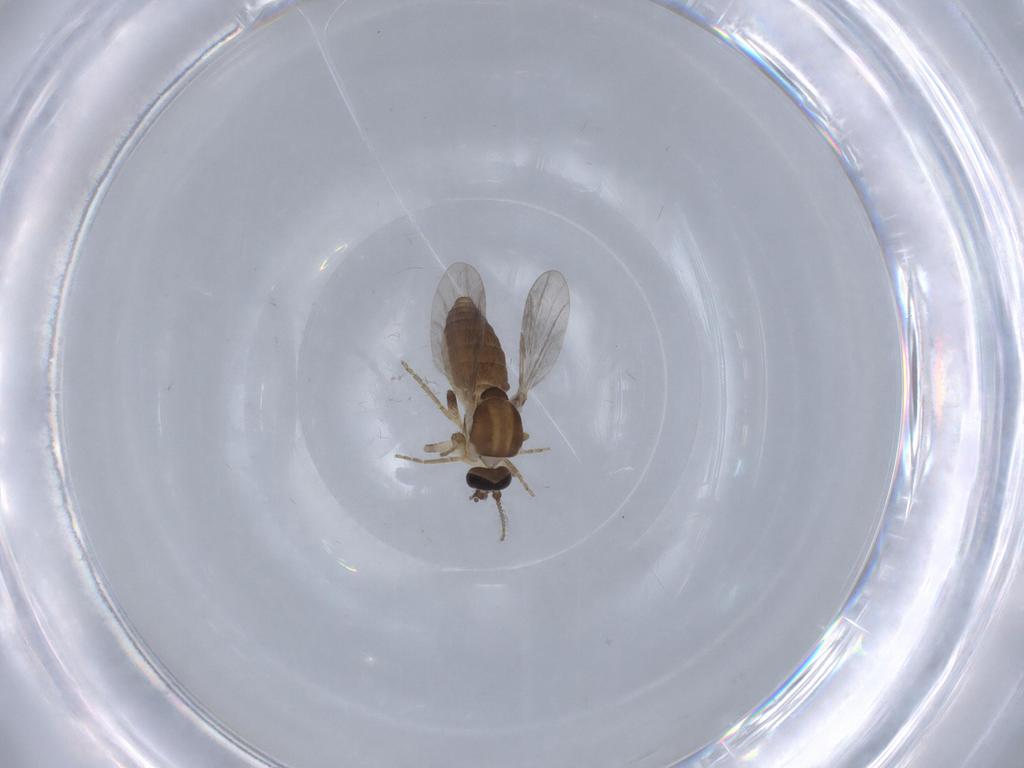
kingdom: Animalia
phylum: Arthropoda
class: Insecta
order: Diptera
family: Ceratopogonidae
